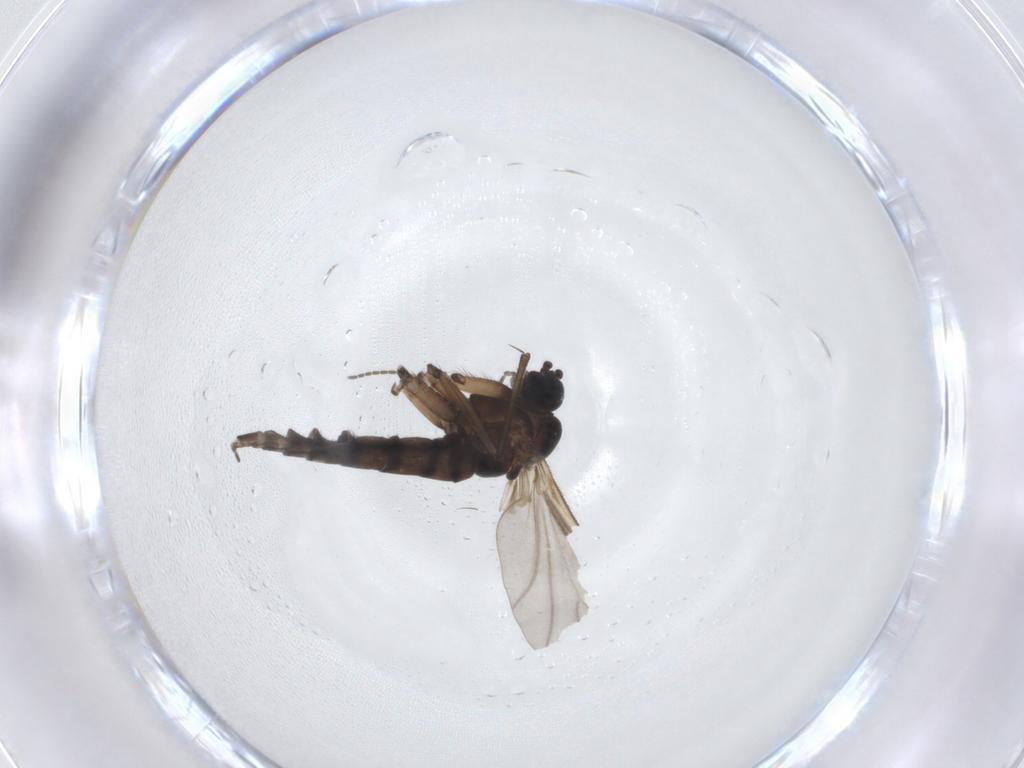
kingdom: Animalia
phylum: Arthropoda
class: Insecta
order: Diptera
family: Sciaridae
